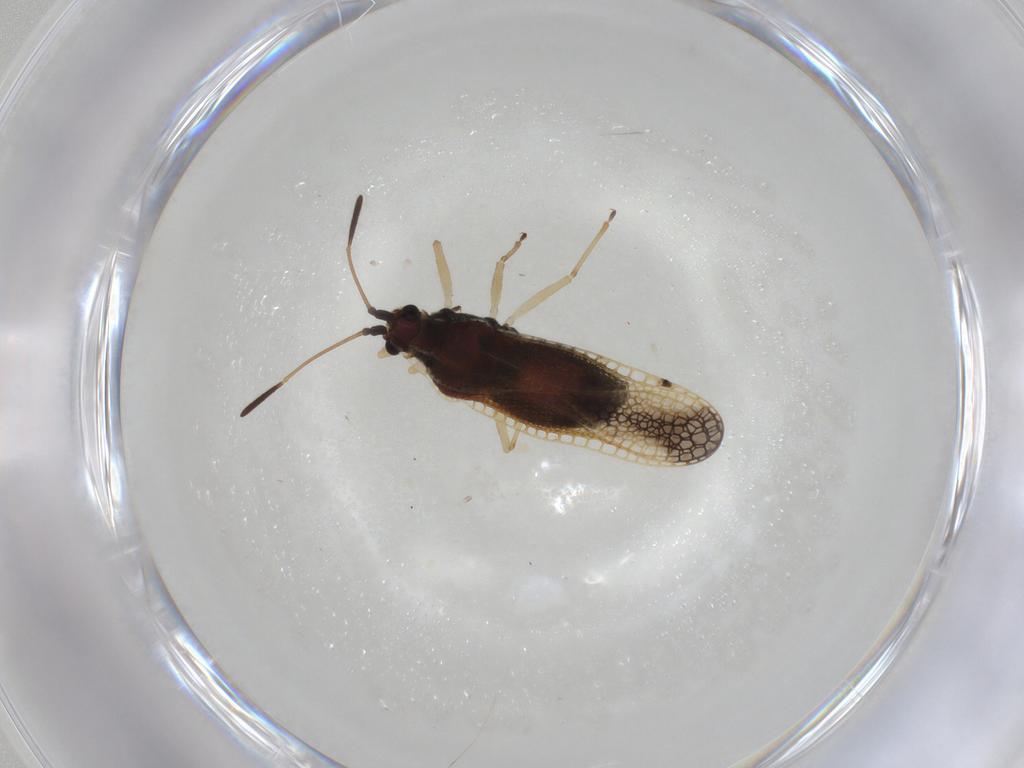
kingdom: Animalia
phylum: Arthropoda
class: Insecta
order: Hemiptera
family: Tingidae
